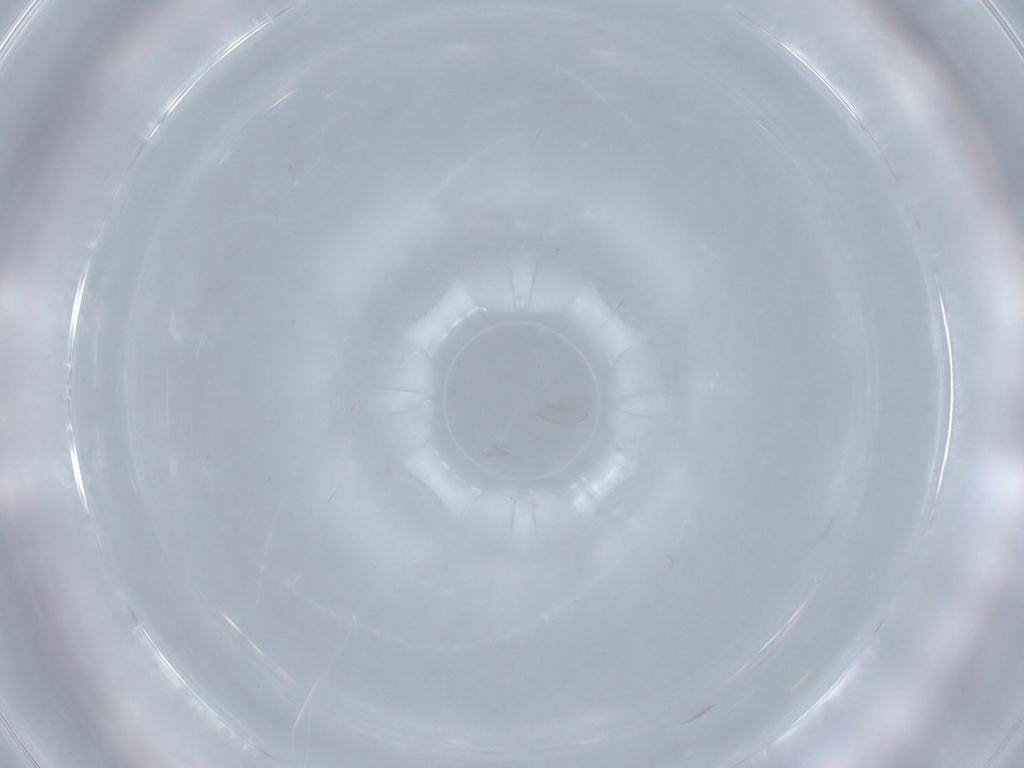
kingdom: Animalia
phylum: Arthropoda
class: Insecta
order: Diptera
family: Cecidomyiidae
